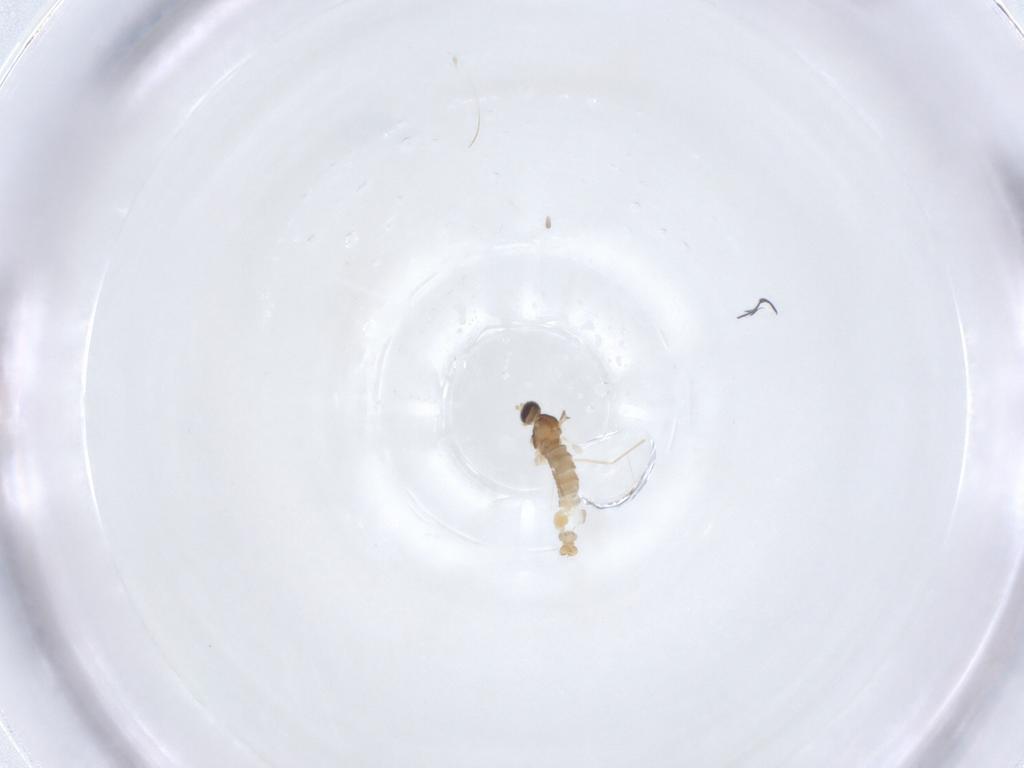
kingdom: Animalia
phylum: Arthropoda
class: Insecta
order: Diptera
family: Cecidomyiidae
